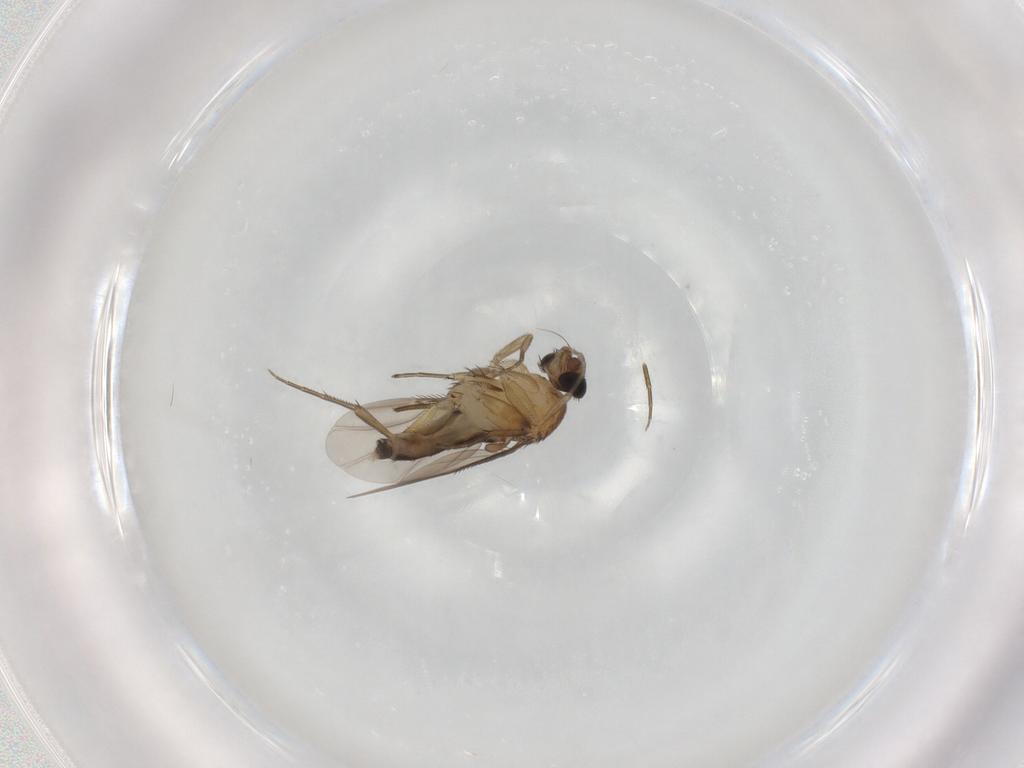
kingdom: Animalia
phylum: Arthropoda
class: Insecta
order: Diptera
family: Phoridae
